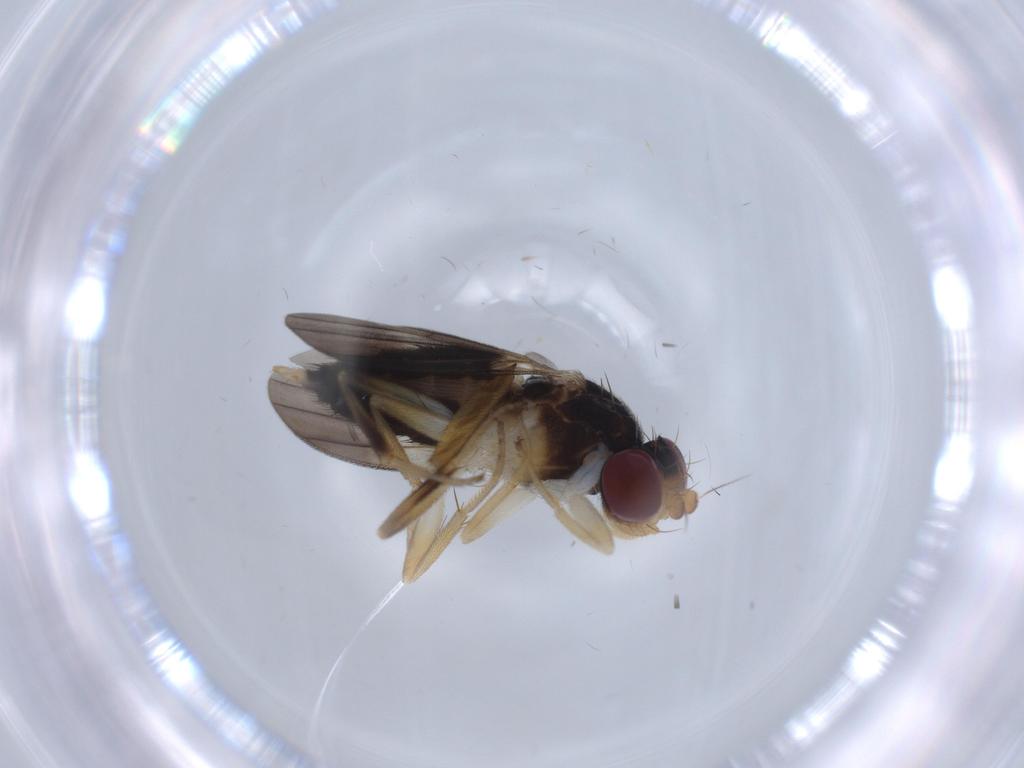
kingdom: Animalia
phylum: Arthropoda
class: Insecta
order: Diptera
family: Clusiidae
